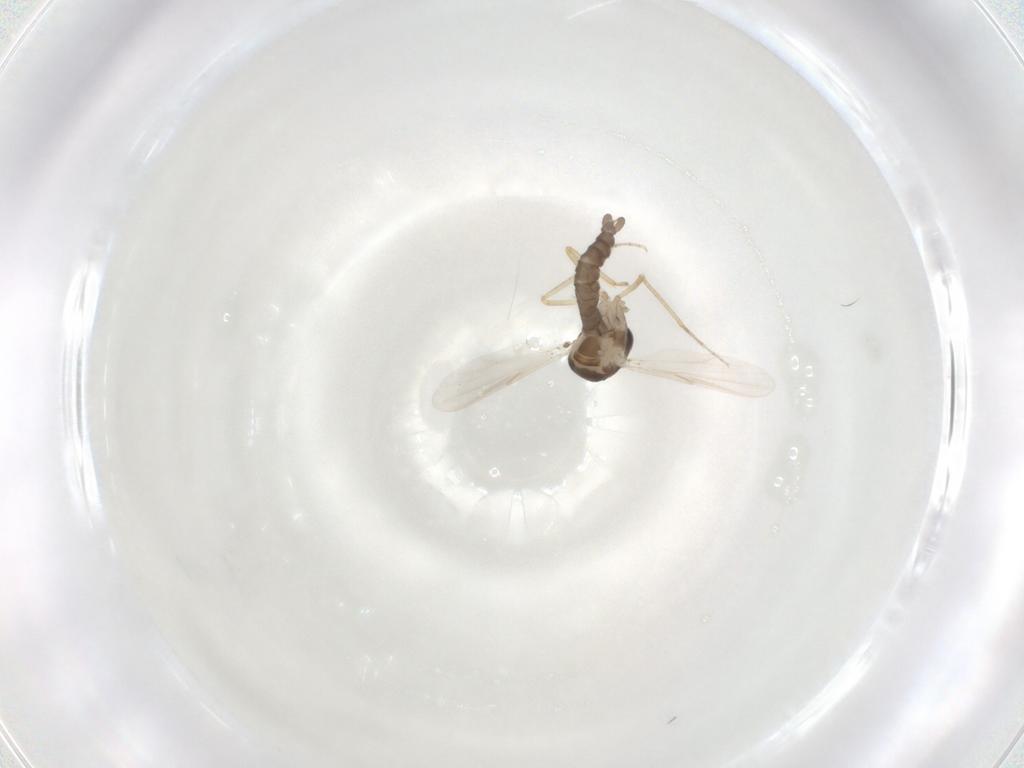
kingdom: Animalia
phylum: Arthropoda
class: Insecta
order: Diptera
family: Ceratopogonidae
